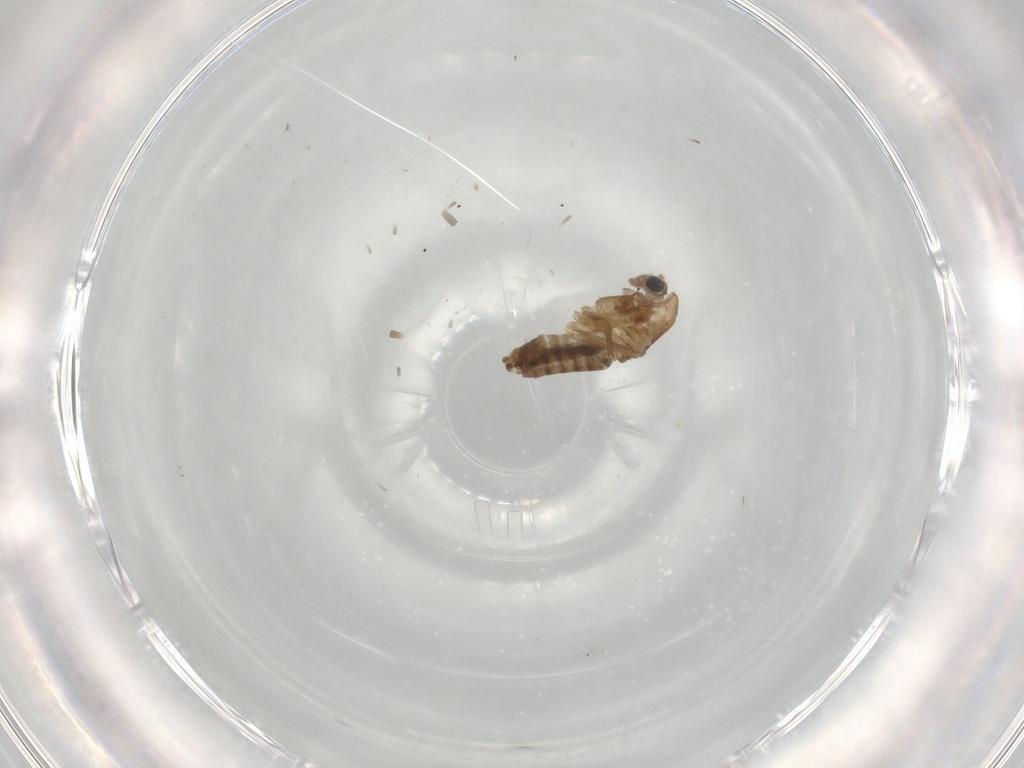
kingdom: Animalia
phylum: Arthropoda
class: Insecta
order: Diptera
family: Chironomidae
